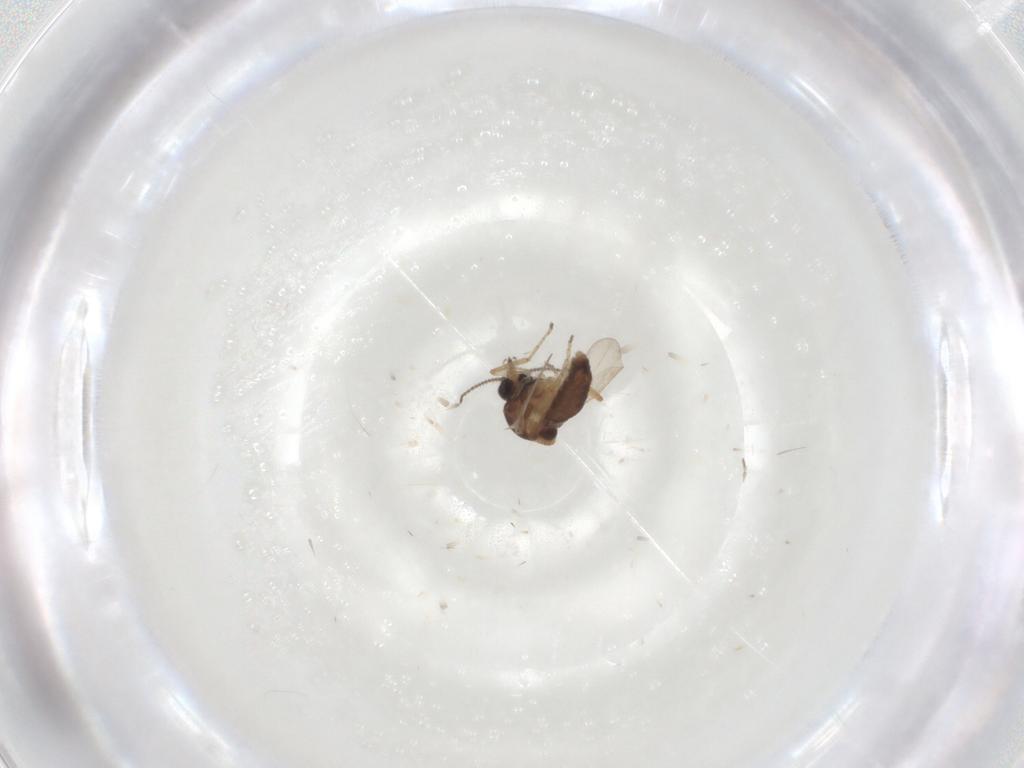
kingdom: Animalia
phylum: Arthropoda
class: Insecta
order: Diptera
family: Ceratopogonidae
